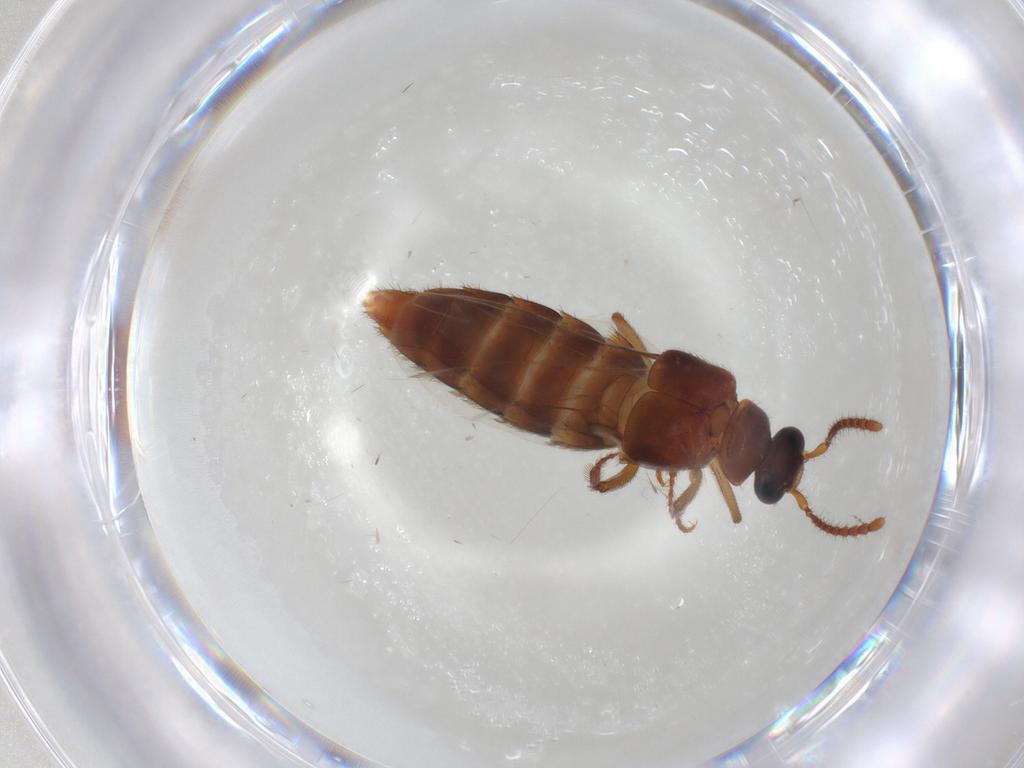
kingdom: Animalia
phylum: Arthropoda
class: Insecta
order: Coleoptera
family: Staphylinidae
